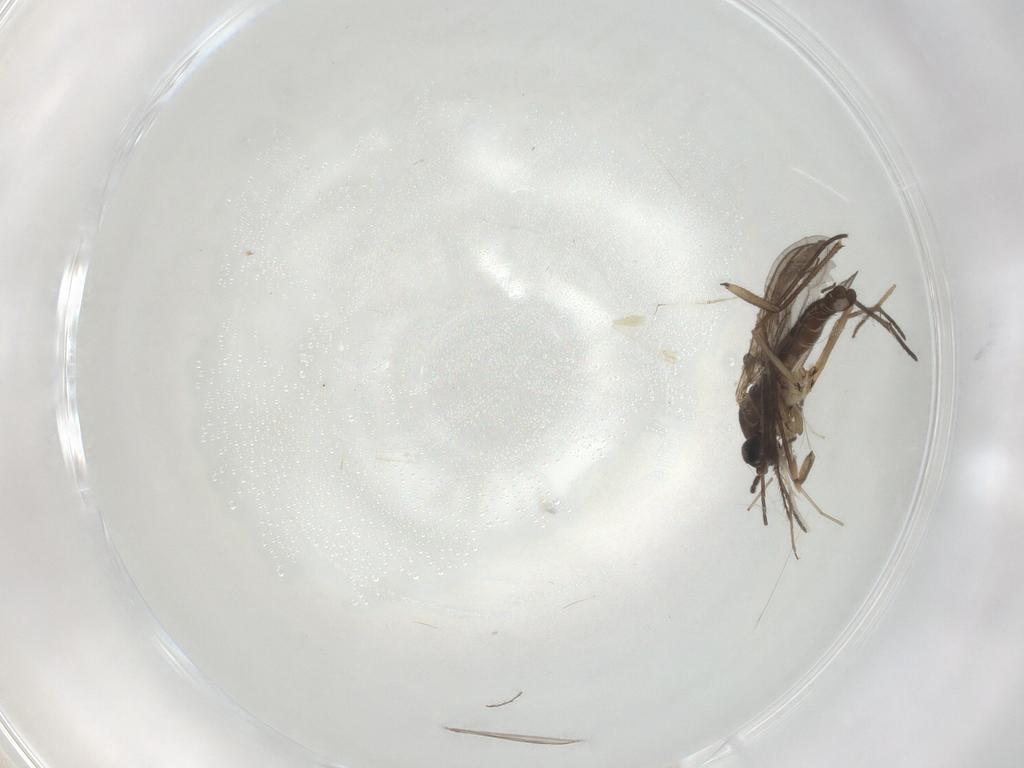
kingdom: Animalia
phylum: Arthropoda
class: Insecta
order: Diptera
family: Sciaridae
